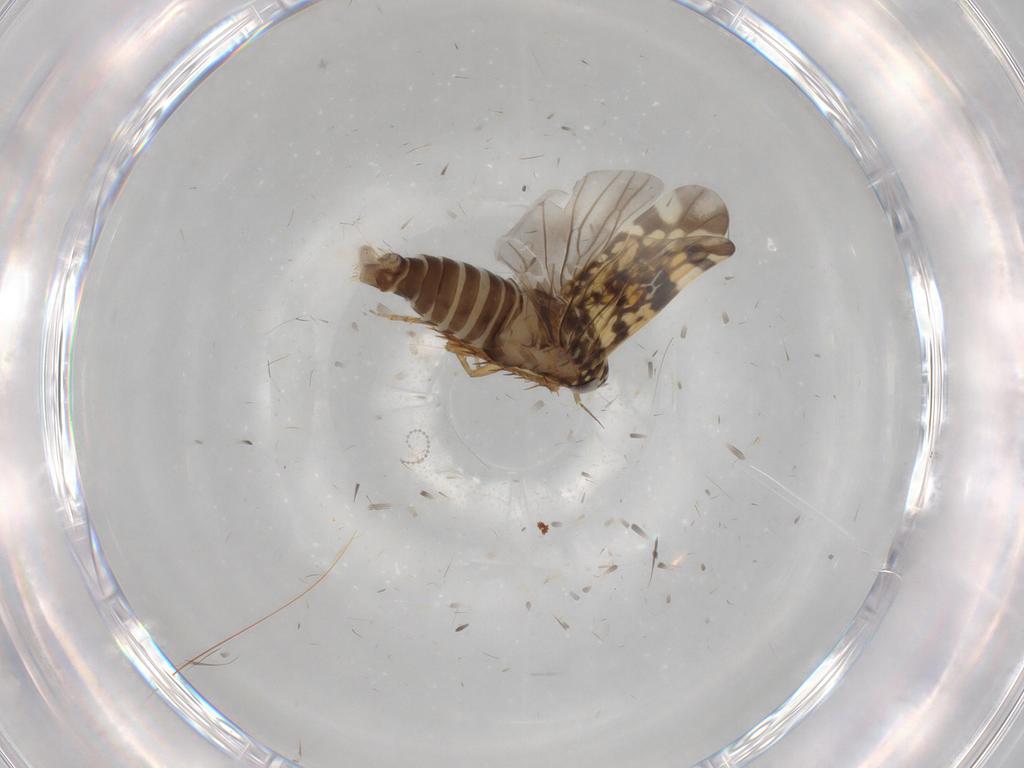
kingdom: Animalia
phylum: Arthropoda
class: Insecta
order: Hemiptera
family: Cicadellidae
